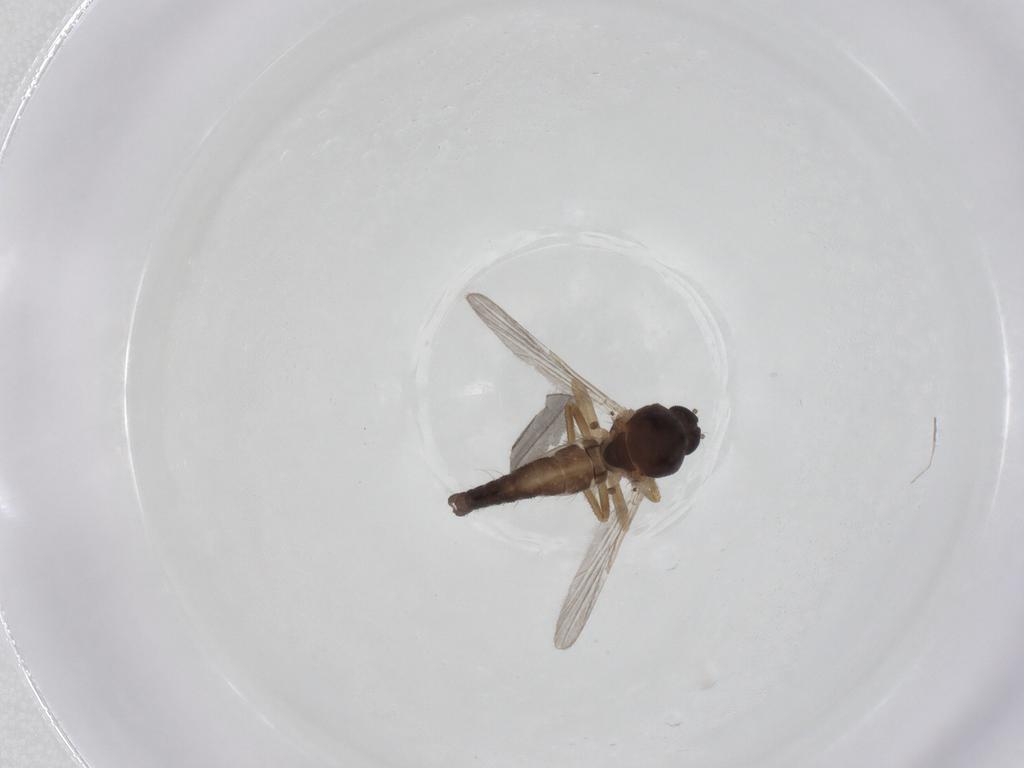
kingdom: Animalia
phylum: Arthropoda
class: Insecta
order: Diptera
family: Ceratopogonidae
